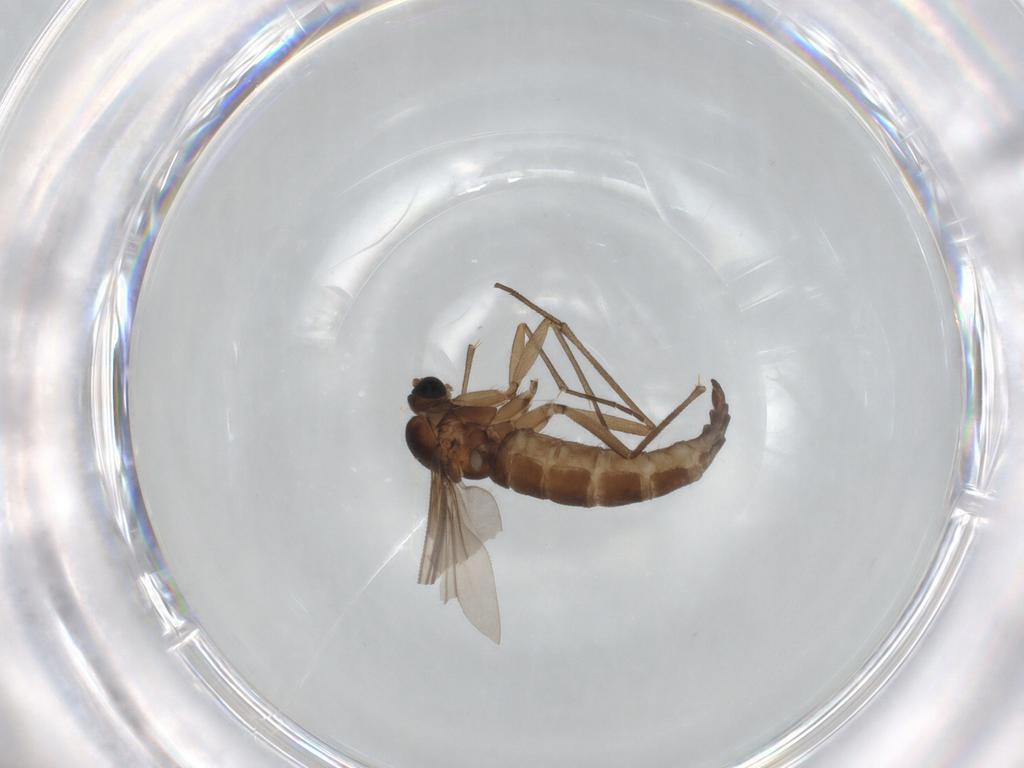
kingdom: Animalia
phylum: Arthropoda
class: Insecta
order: Diptera
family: Sciaridae
